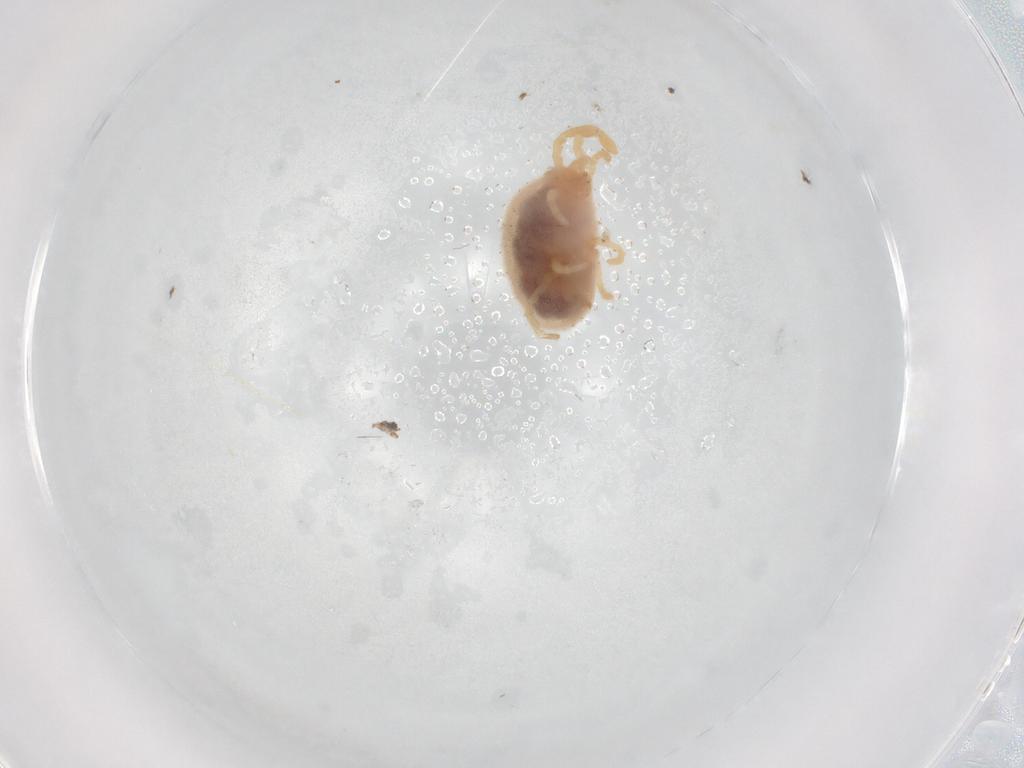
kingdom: Animalia
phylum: Arthropoda
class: Arachnida
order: Trombidiformes
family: Microtrombidiidae
